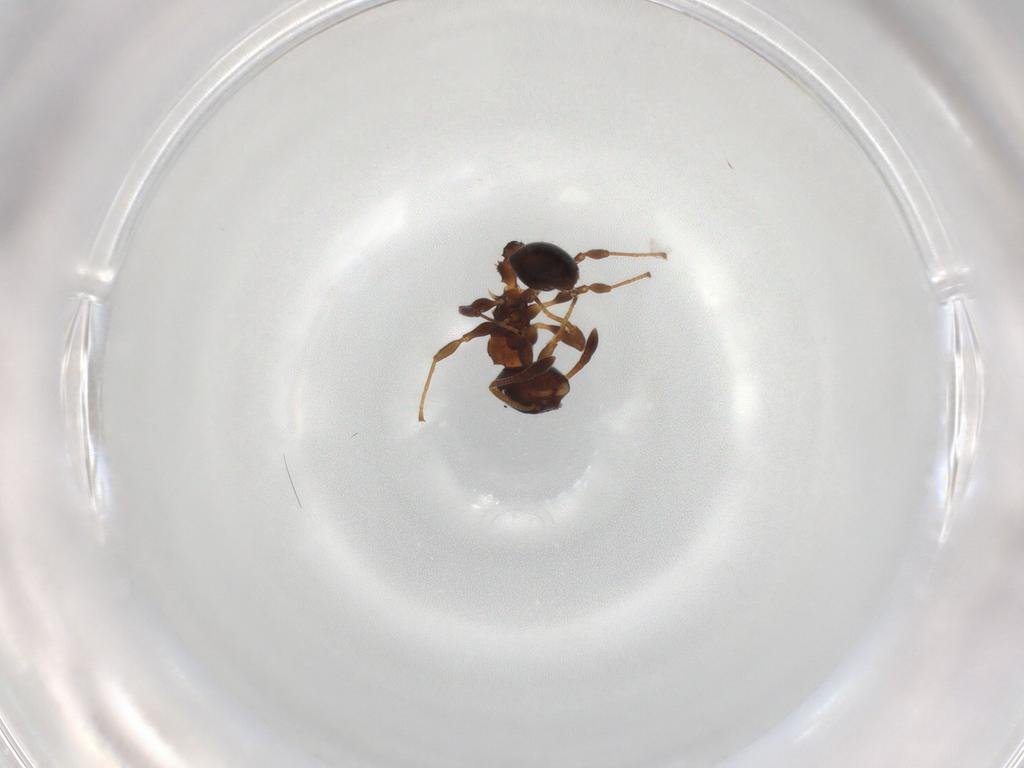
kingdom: Animalia
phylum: Arthropoda
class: Insecta
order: Hymenoptera
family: Formicidae
